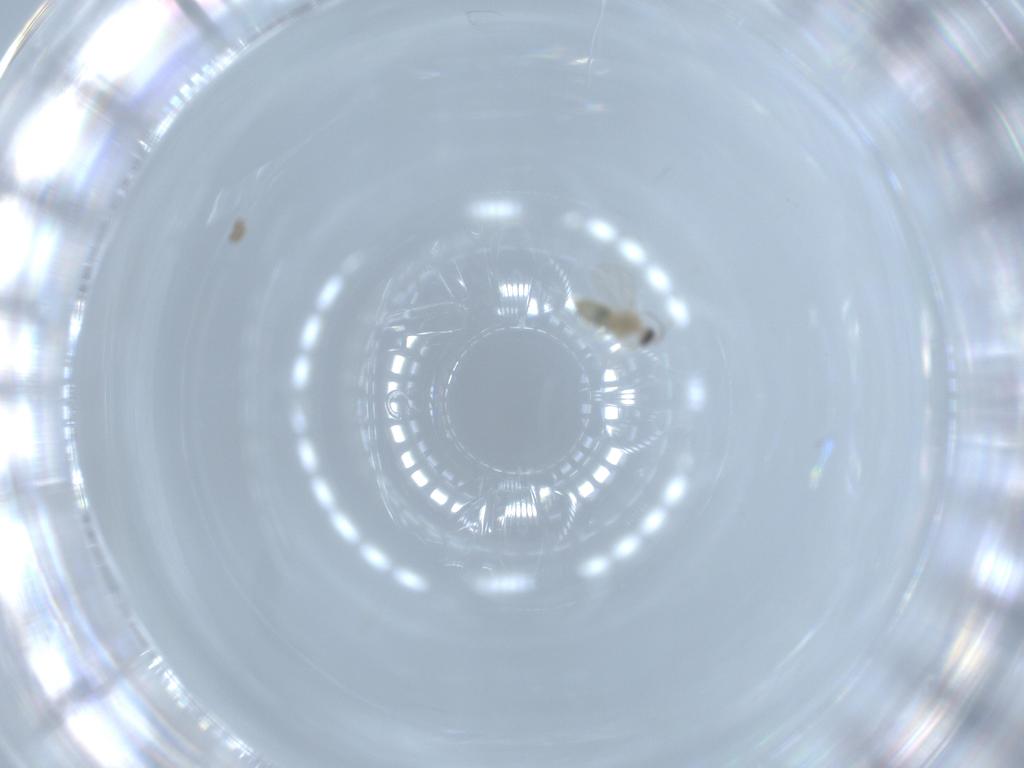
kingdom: Animalia
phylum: Arthropoda
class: Insecta
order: Diptera
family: Cecidomyiidae
